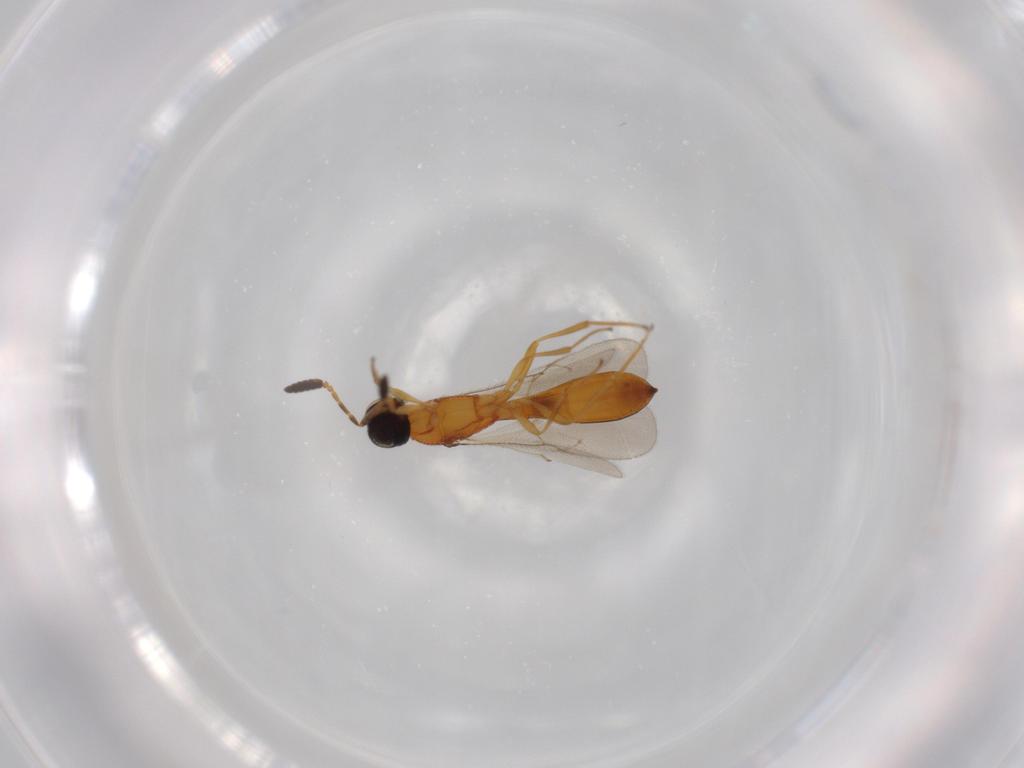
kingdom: Animalia
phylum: Arthropoda
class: Insecta
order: Hymenoptera
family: Scelionidae
